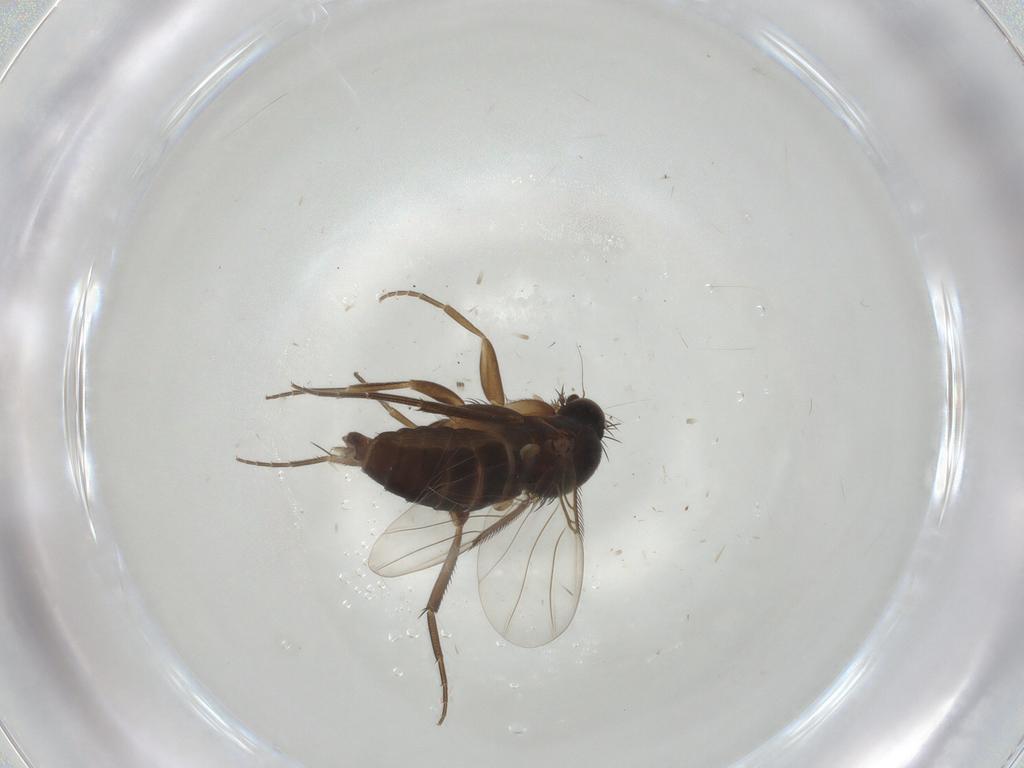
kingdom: Animalia
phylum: Arthropoda
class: Insecta
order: Diptera
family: Phoridae
